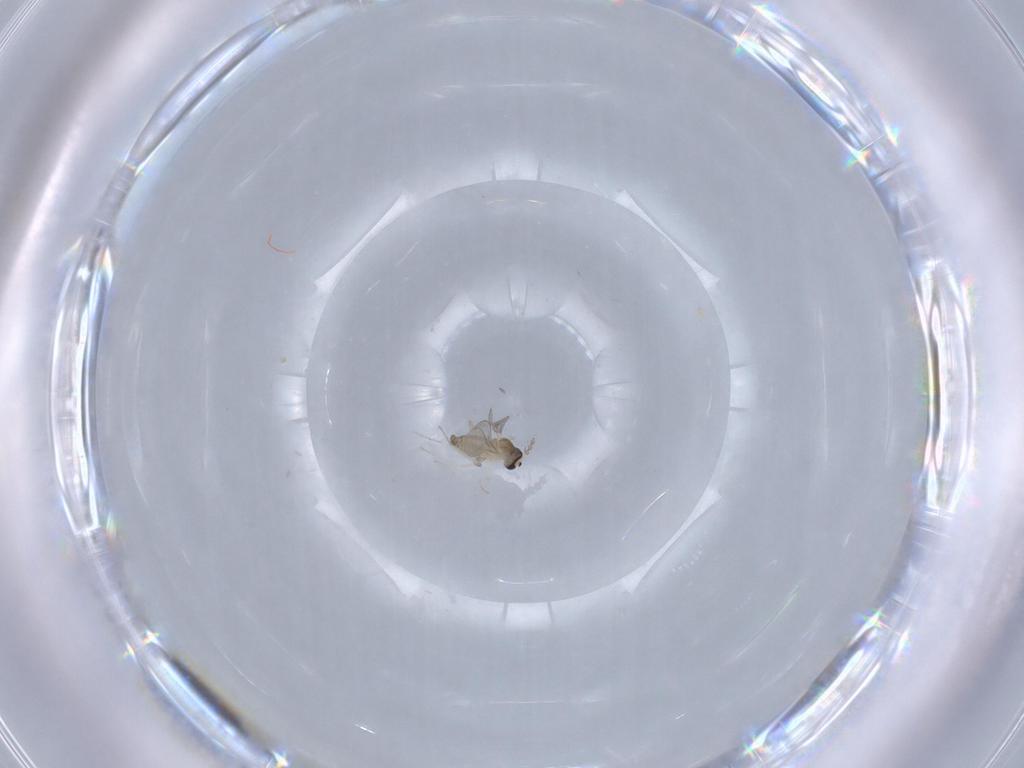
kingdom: Animalia
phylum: Arthropoda
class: Insecta
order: Diptera
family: Cecidomyiidae
